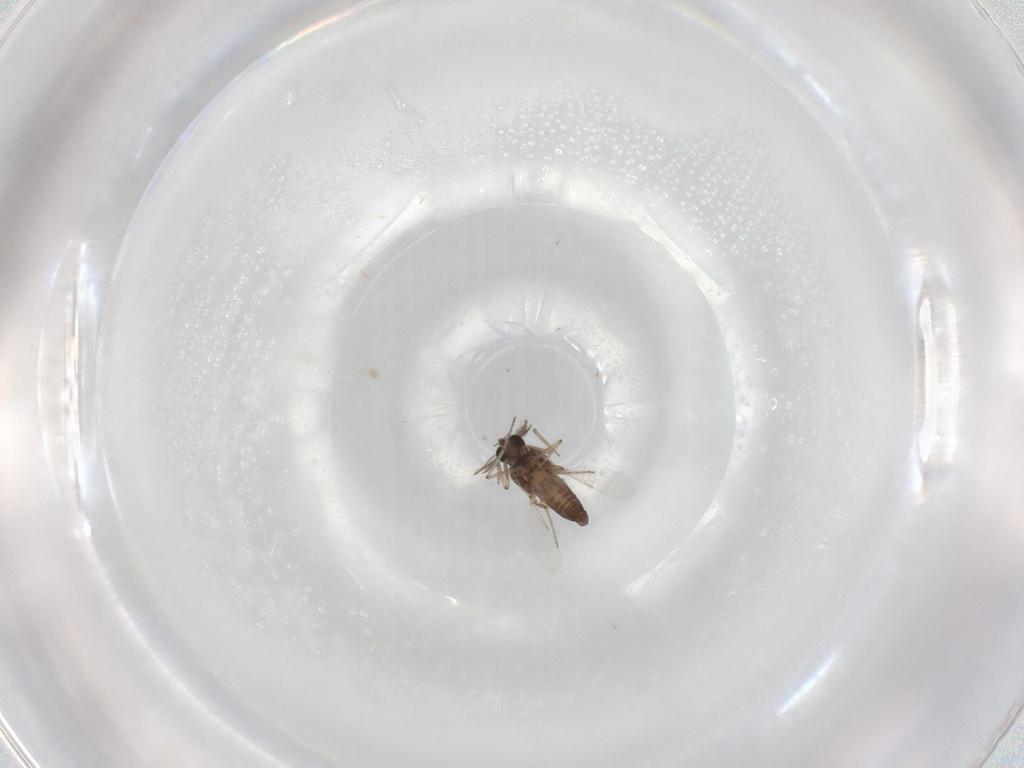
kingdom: Animalia
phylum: Arthropoda
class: Insecta
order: Diptera
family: Ceratopogonidae
